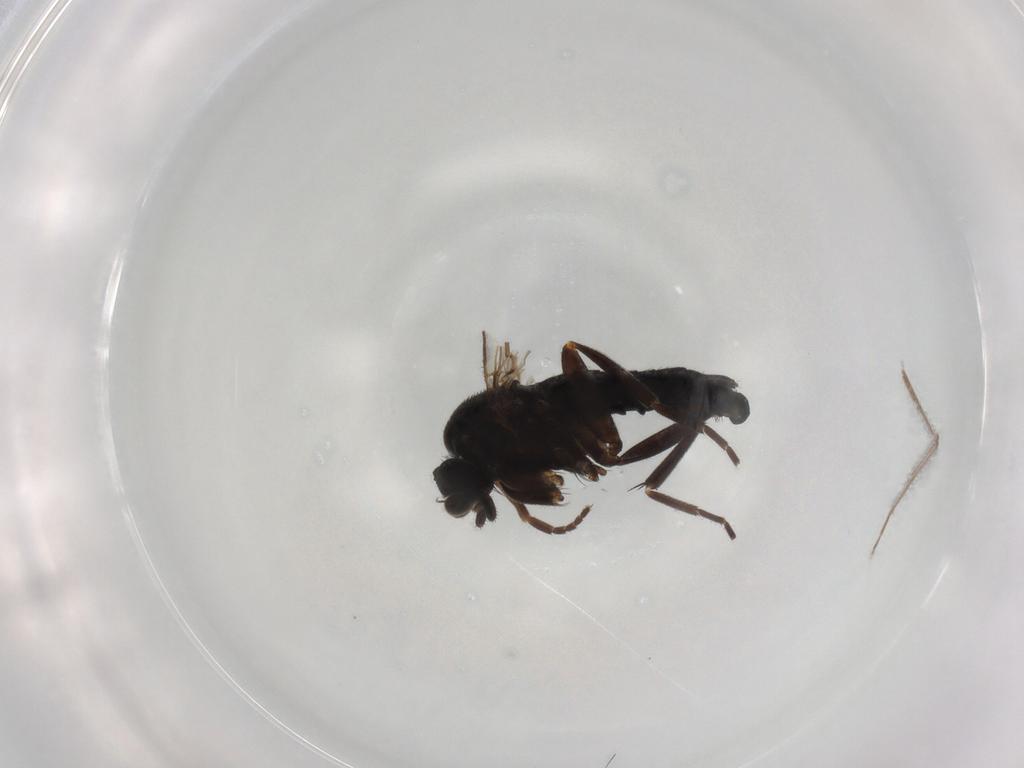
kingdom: Animalia
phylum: Arthropoda
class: Insecta
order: Diptera
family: Phoridae
